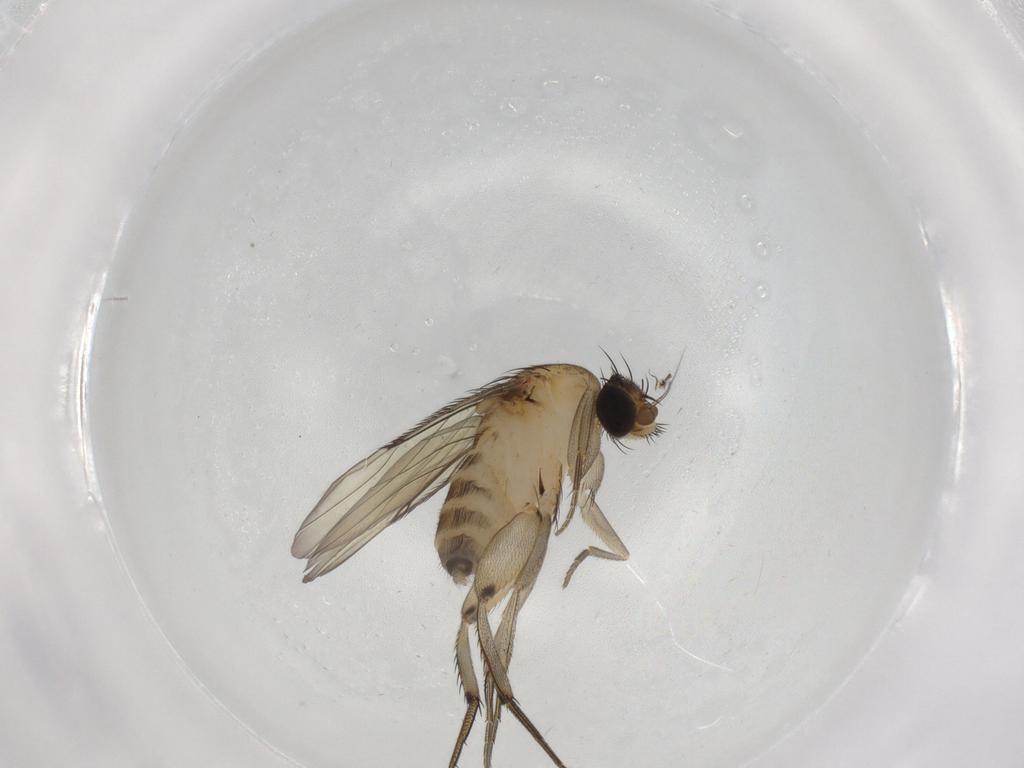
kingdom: Animalia
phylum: Arthropoda
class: Insecta
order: Diptera
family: Phoridae
